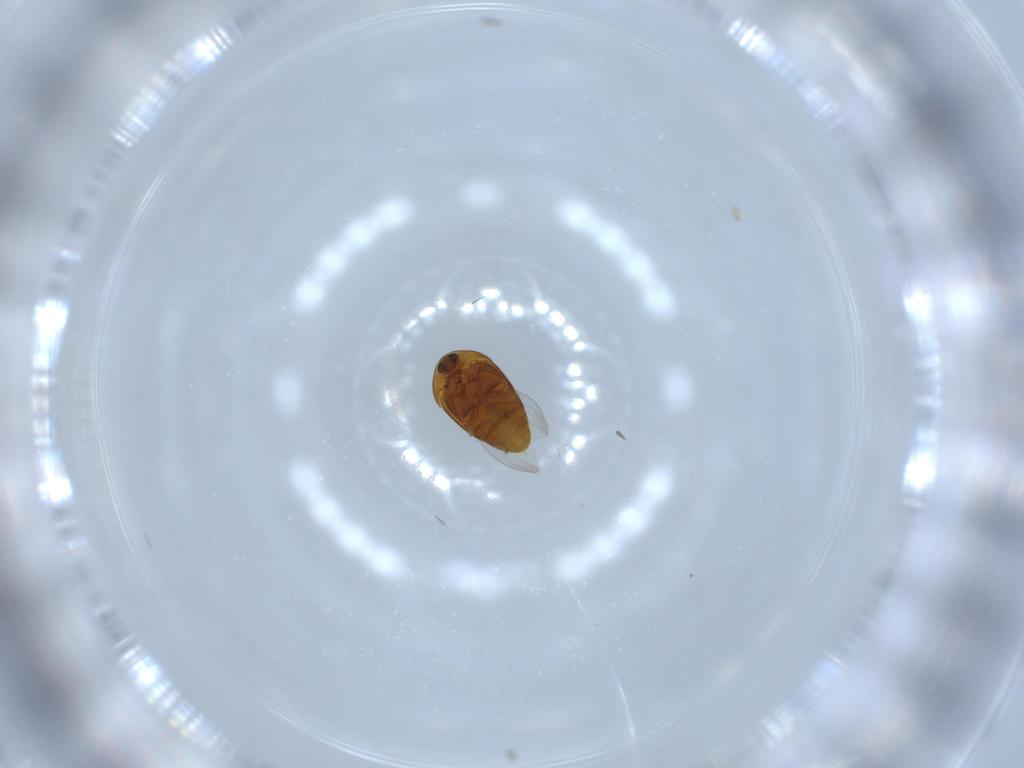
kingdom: Animalia
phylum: Arthropoda
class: Insecta
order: Coleoptera
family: Corylophidae
